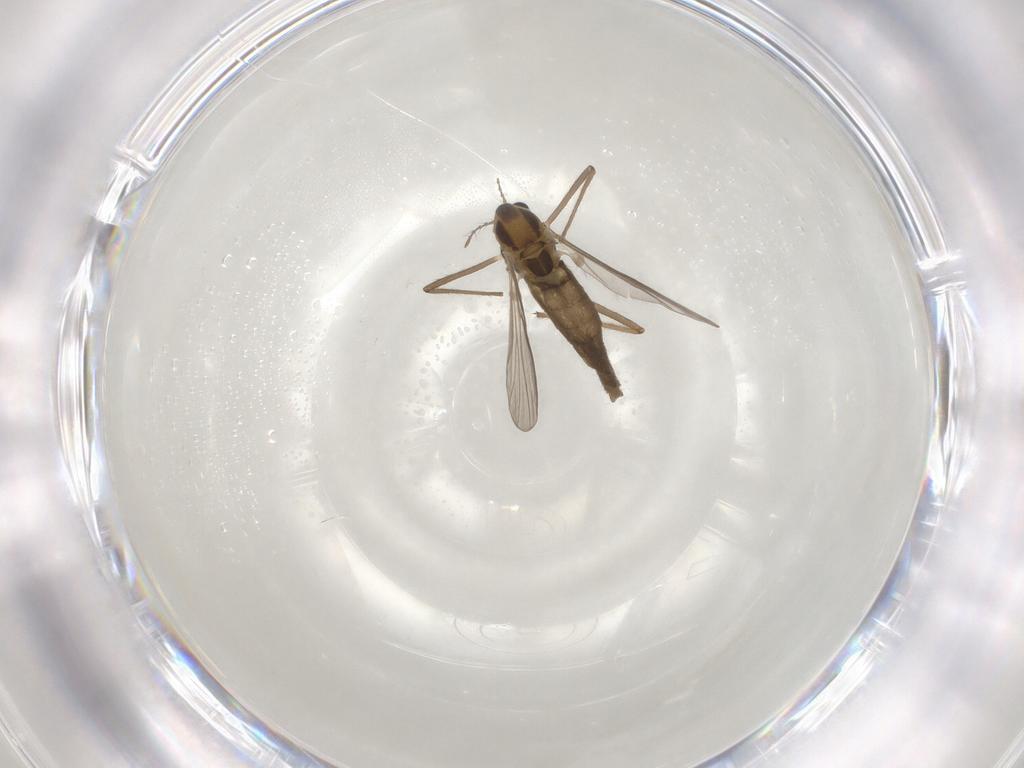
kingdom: Animalia
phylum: Arthropoda
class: Insecta
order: Diptera
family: Chironomidae
